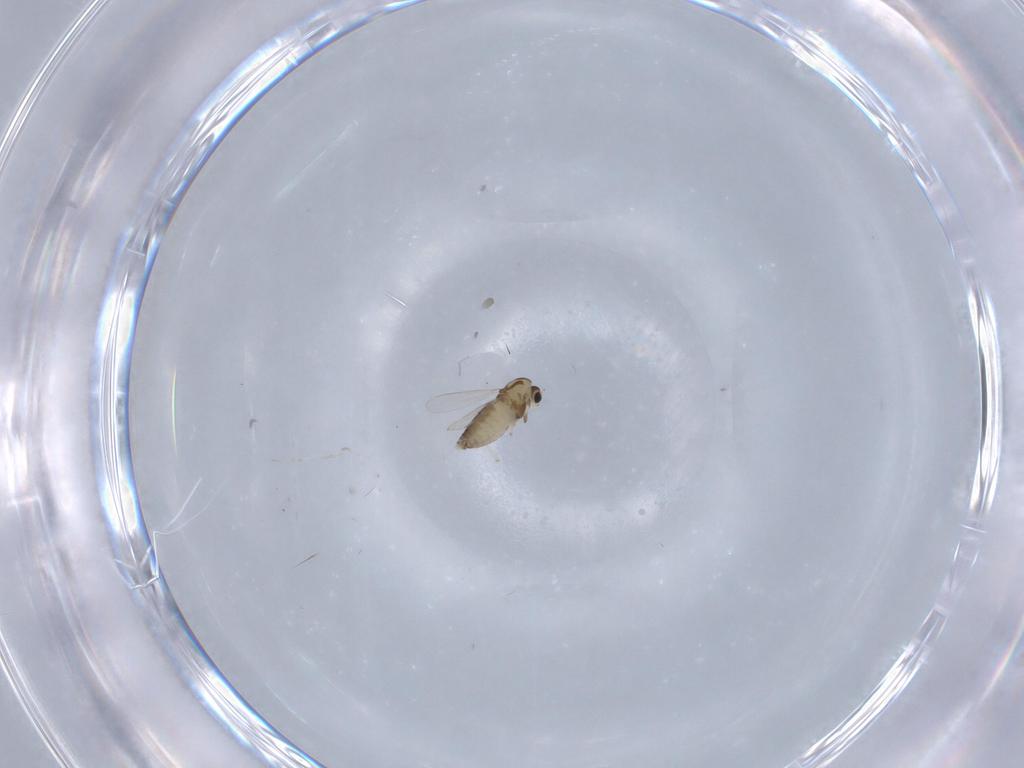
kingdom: Animalia
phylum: Arthropoda
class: Insecta
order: Diptera
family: Chironomidae
